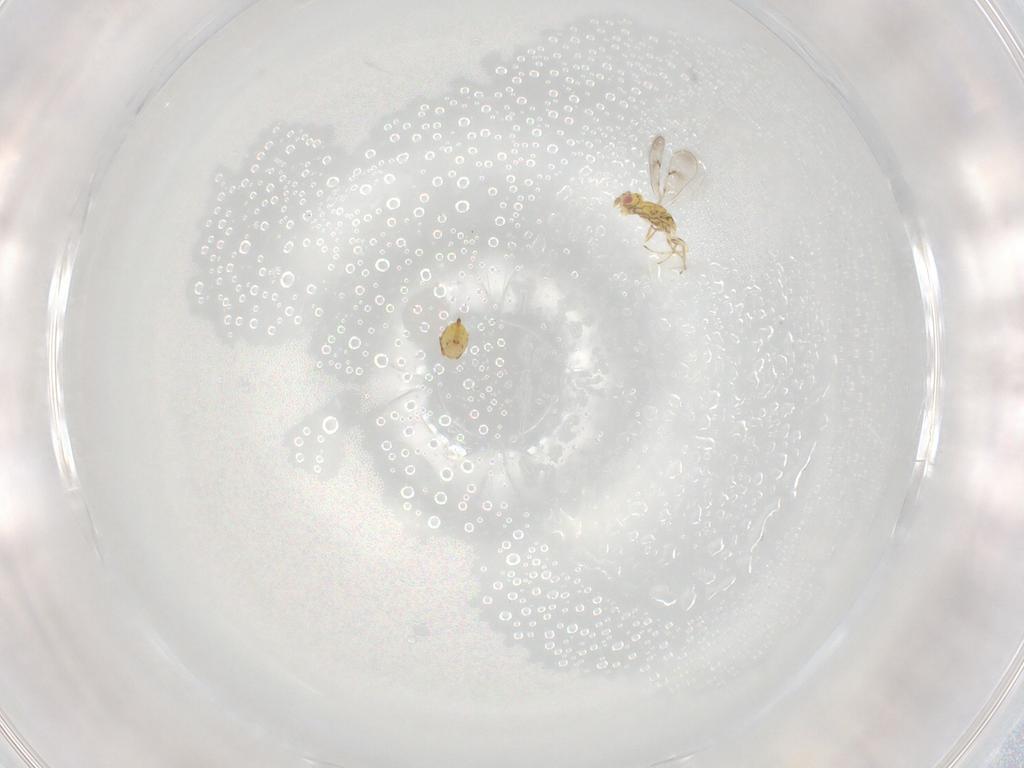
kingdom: Animalia
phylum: Arthropoda
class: Insecta
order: Hymenoptera
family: Eulophidae
